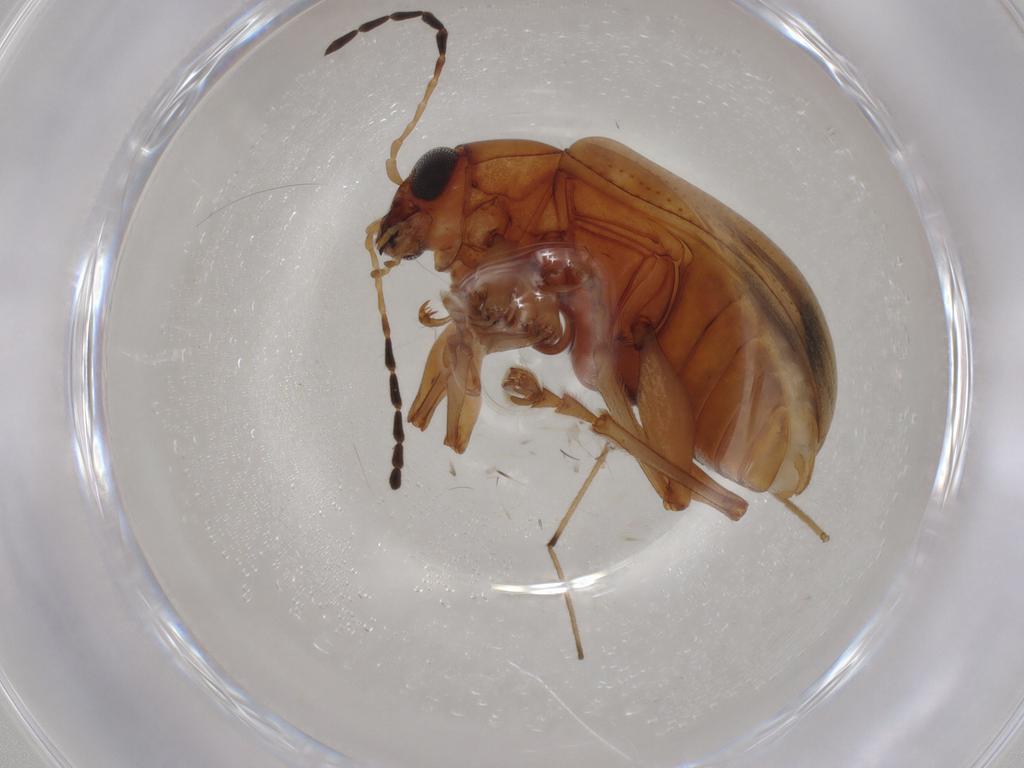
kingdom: Animalia
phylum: Arthropoda
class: Insecta
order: Coleoptera
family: Chrysomelidae
